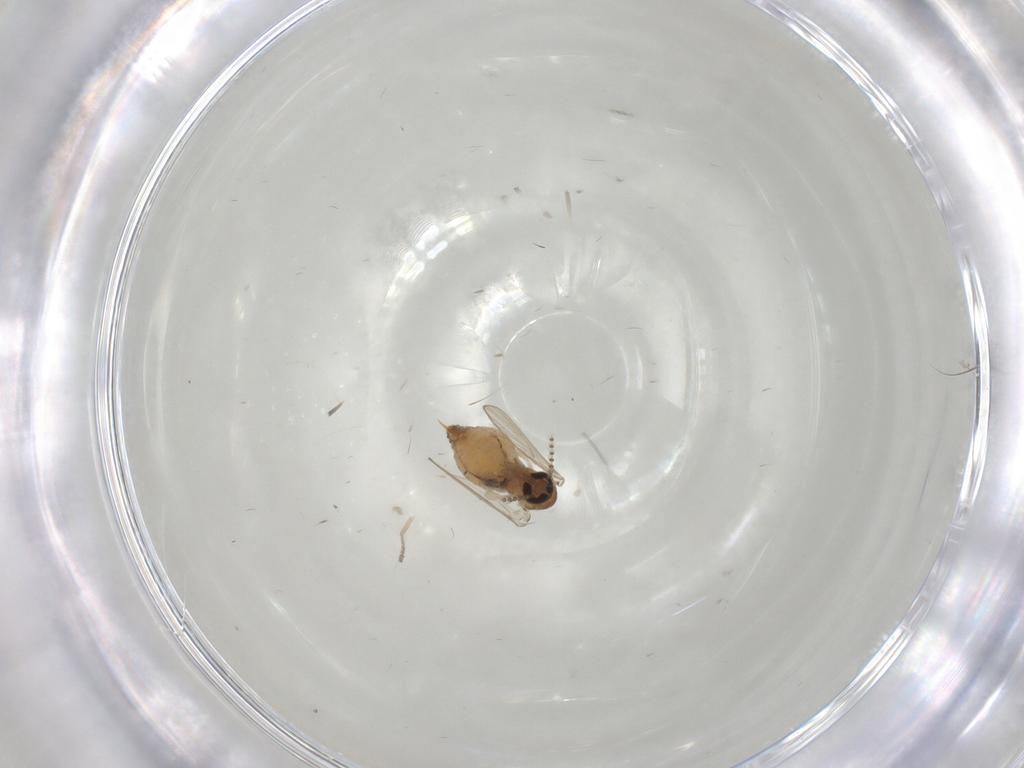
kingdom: Animalia
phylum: Arthropoda
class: Insecta
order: Diptera
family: Psychodidae
